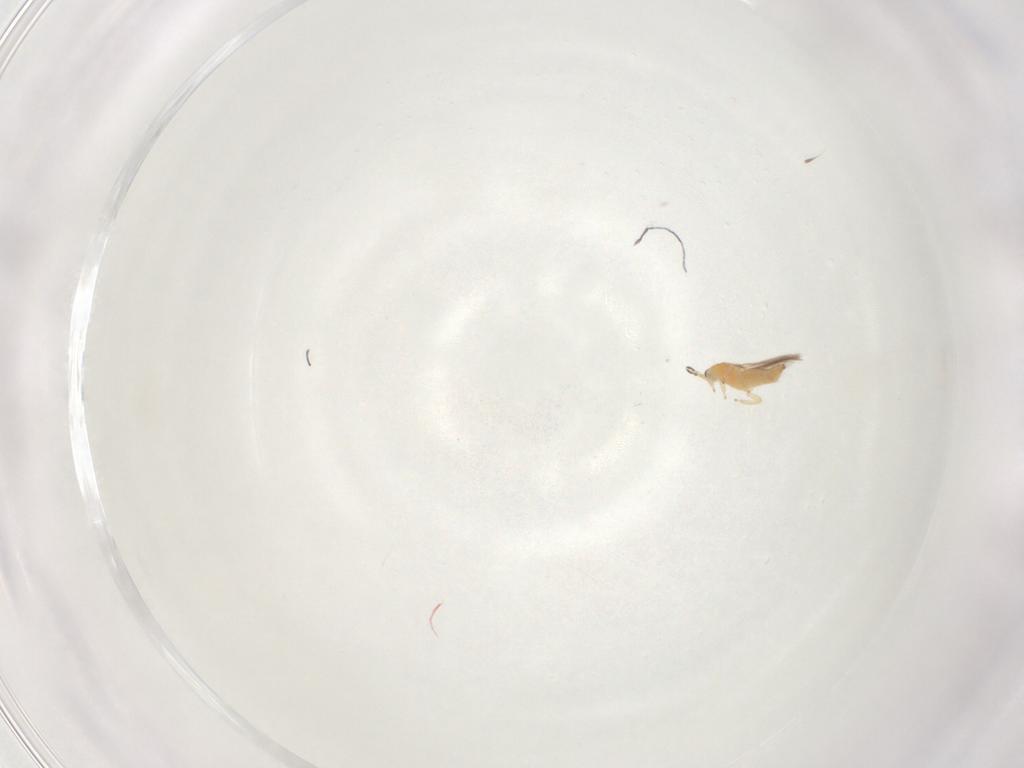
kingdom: Animalia
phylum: Arthropoda
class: Insecta
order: Thysanoptera
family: Thripidae
